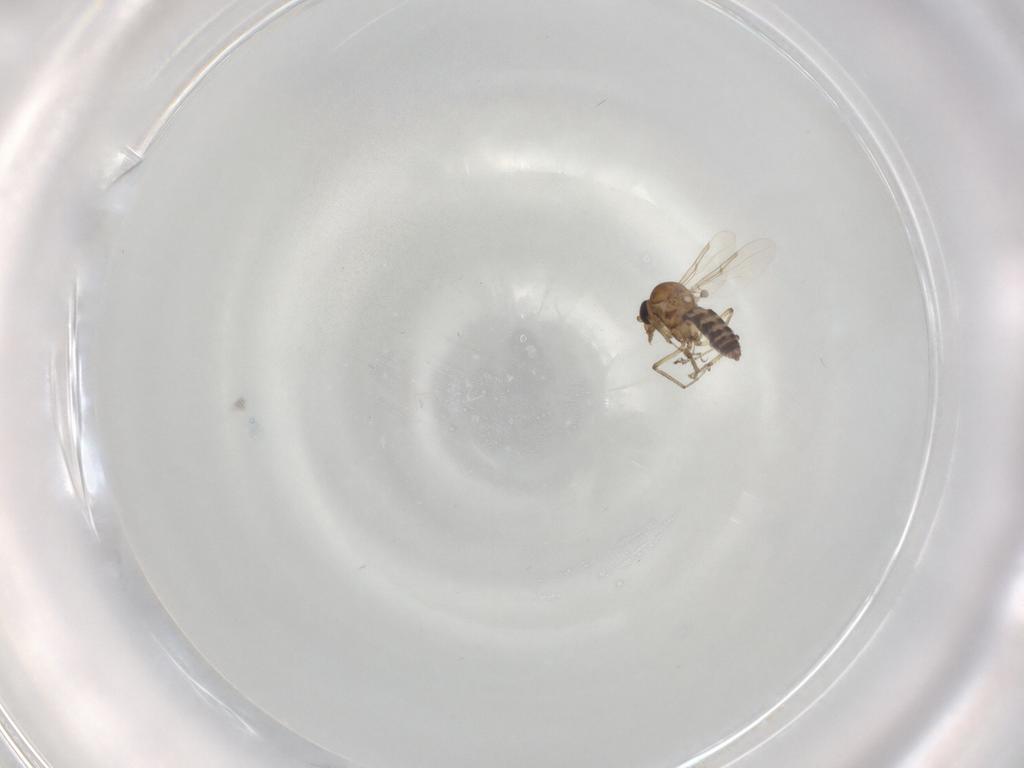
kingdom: Animalia
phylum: Arthropoda
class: Insecta
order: Diptera
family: Ceratopogonidae
